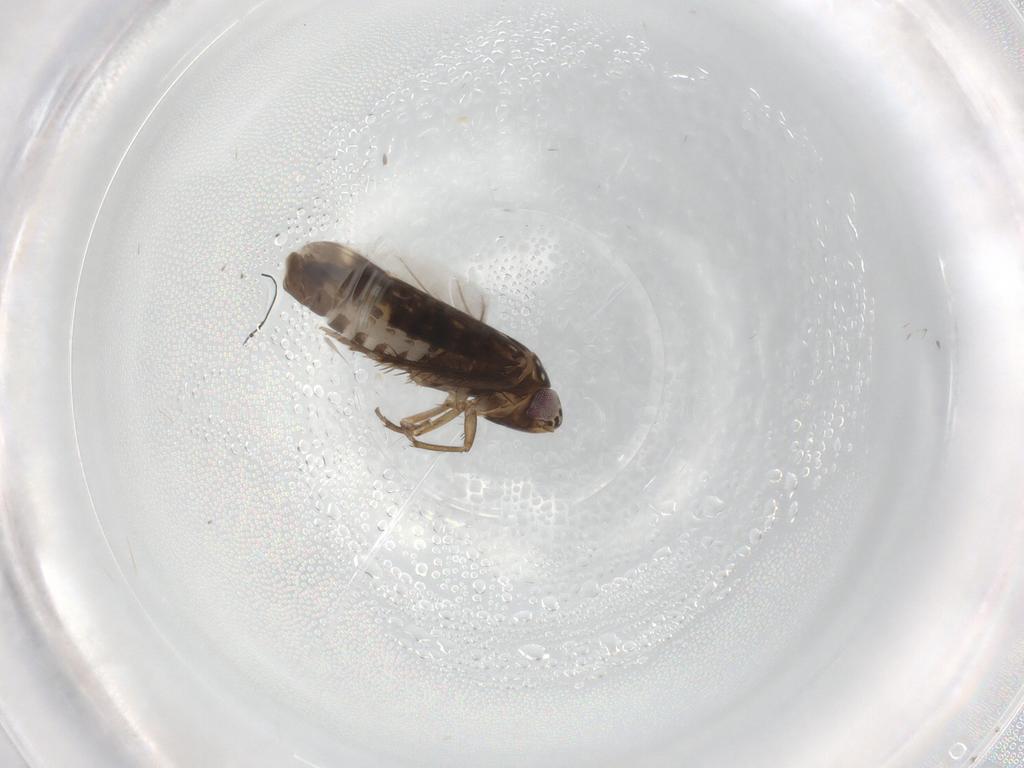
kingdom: Animalia
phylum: Arthropoda
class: Insecta
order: Hemiptera
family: Cicadellidae
